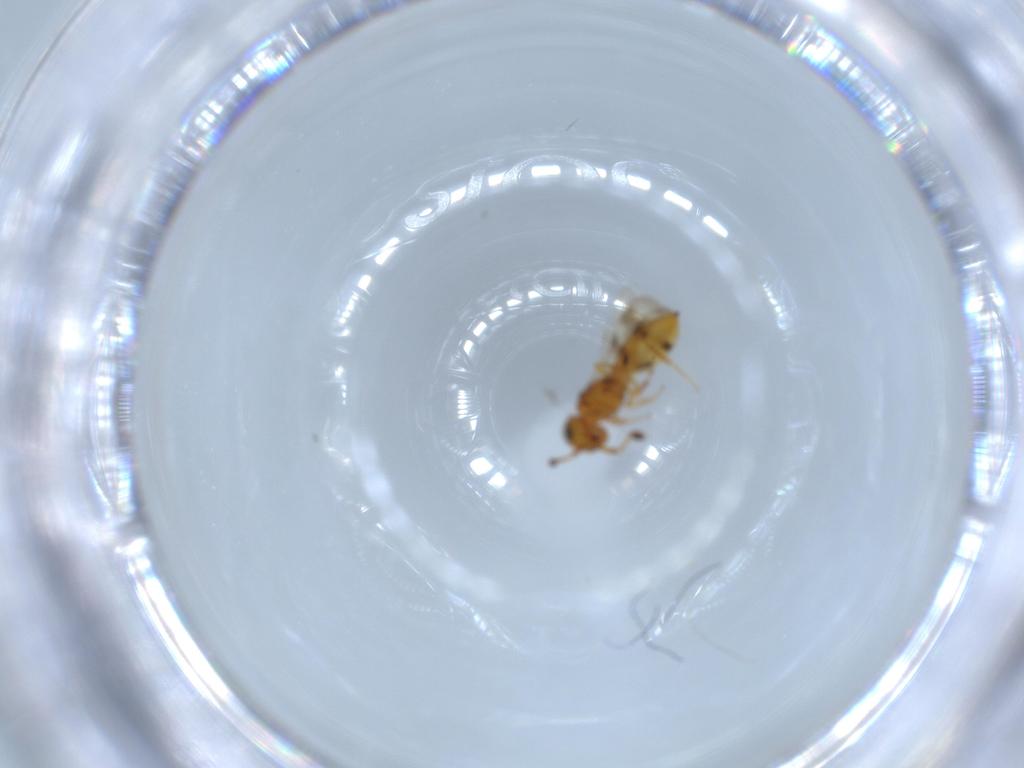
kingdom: Animalia
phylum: Arthropoda
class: Insecta
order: Hymenoptera
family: Scelionidae
